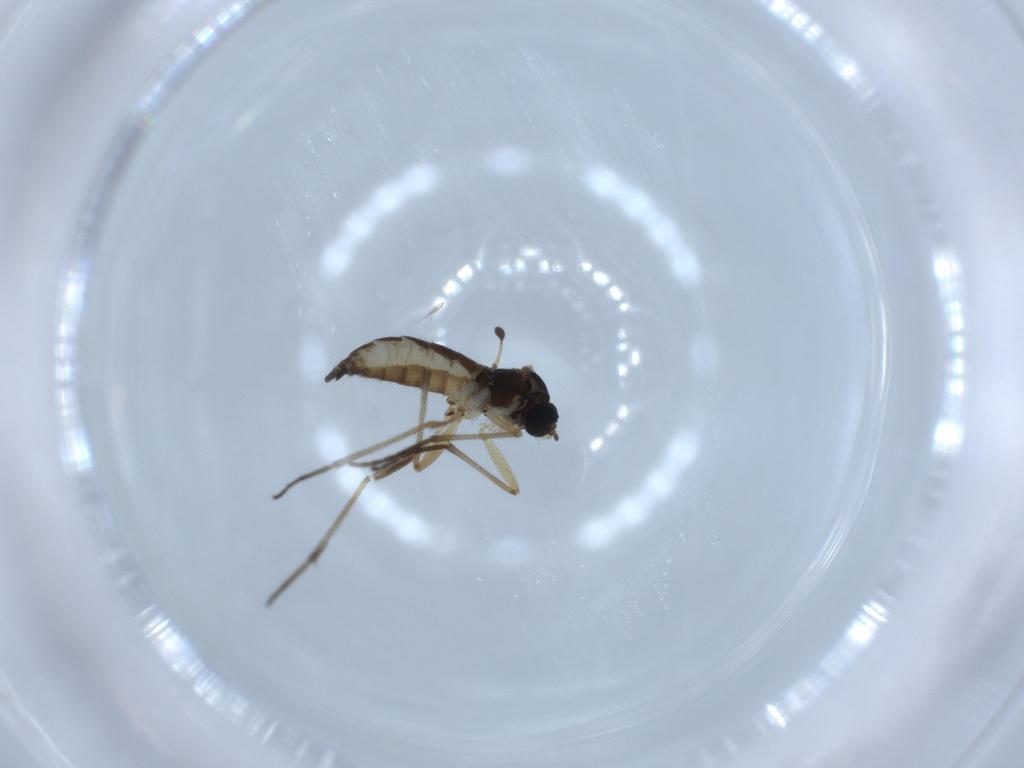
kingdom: Animalia
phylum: Arthropoda
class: Insecta
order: Diptera
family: Sciaridae
